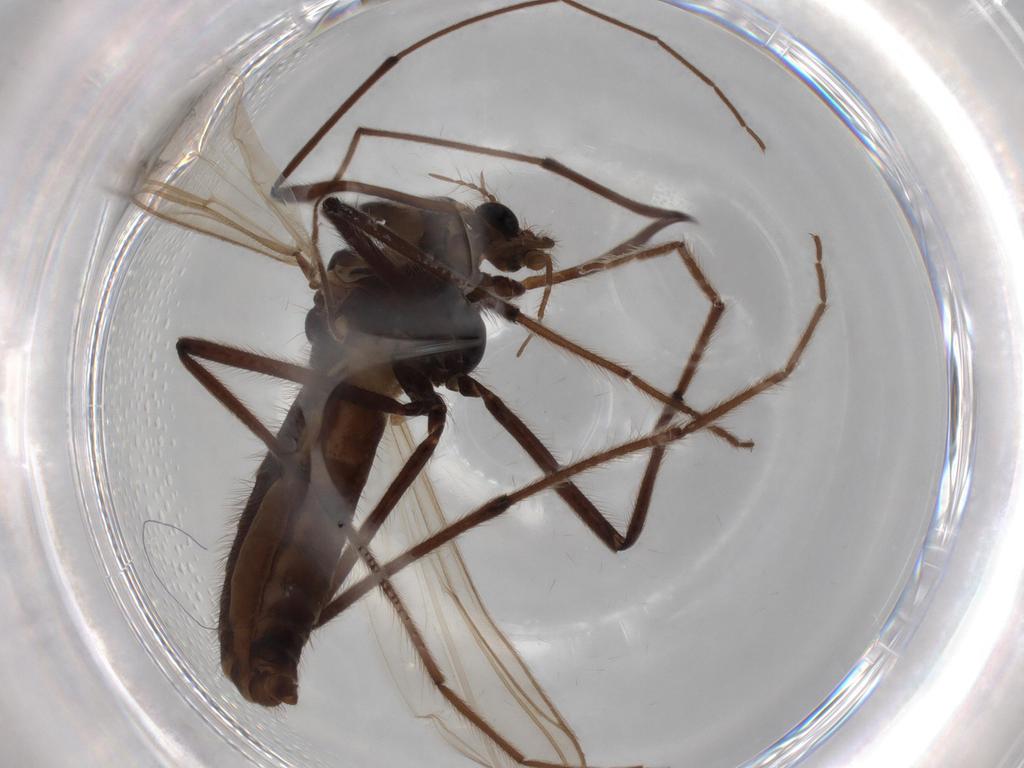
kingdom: Animalia
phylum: Arthropoda
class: Insecta
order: Diptera
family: Chironomidae
